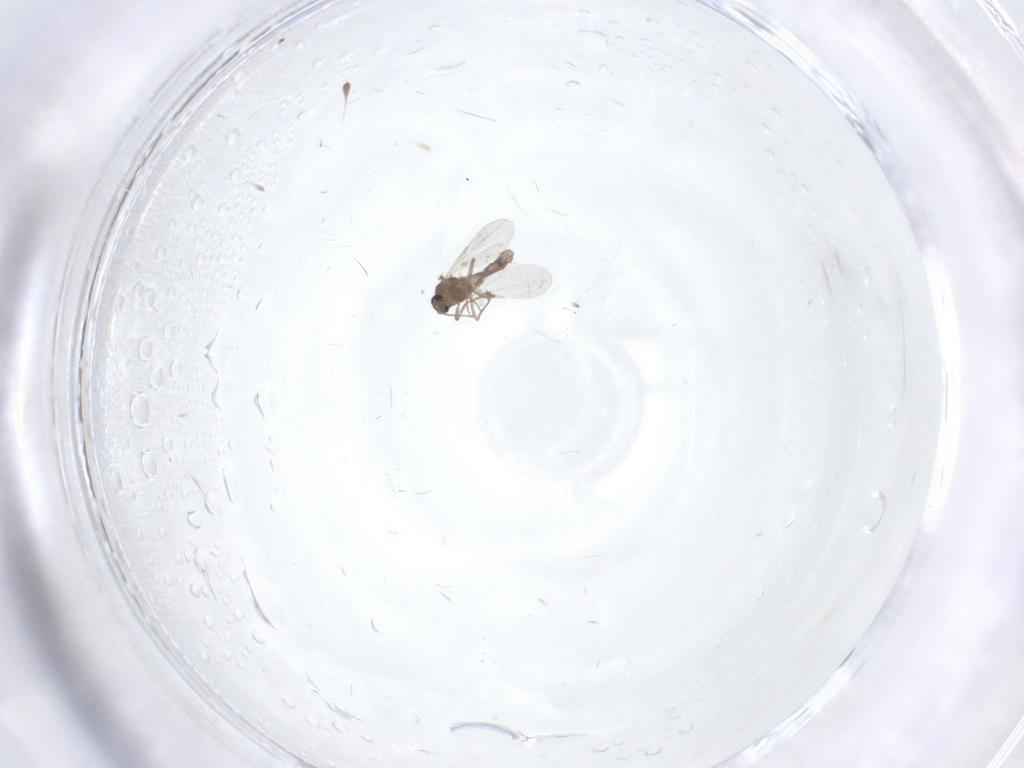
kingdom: Animalia
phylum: Arthropoda
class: Insecta
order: Diptera
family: Chironomidae
